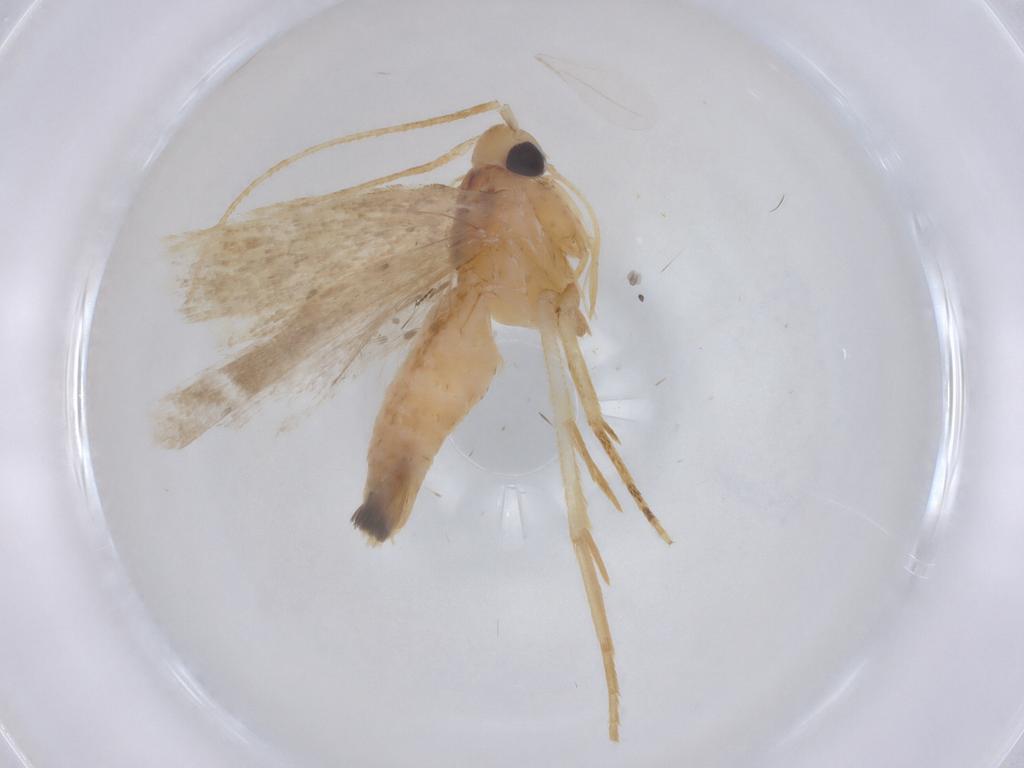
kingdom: Animalia
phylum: Arthropoda
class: Insecta
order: Lepidoptera
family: Gelechiidae
